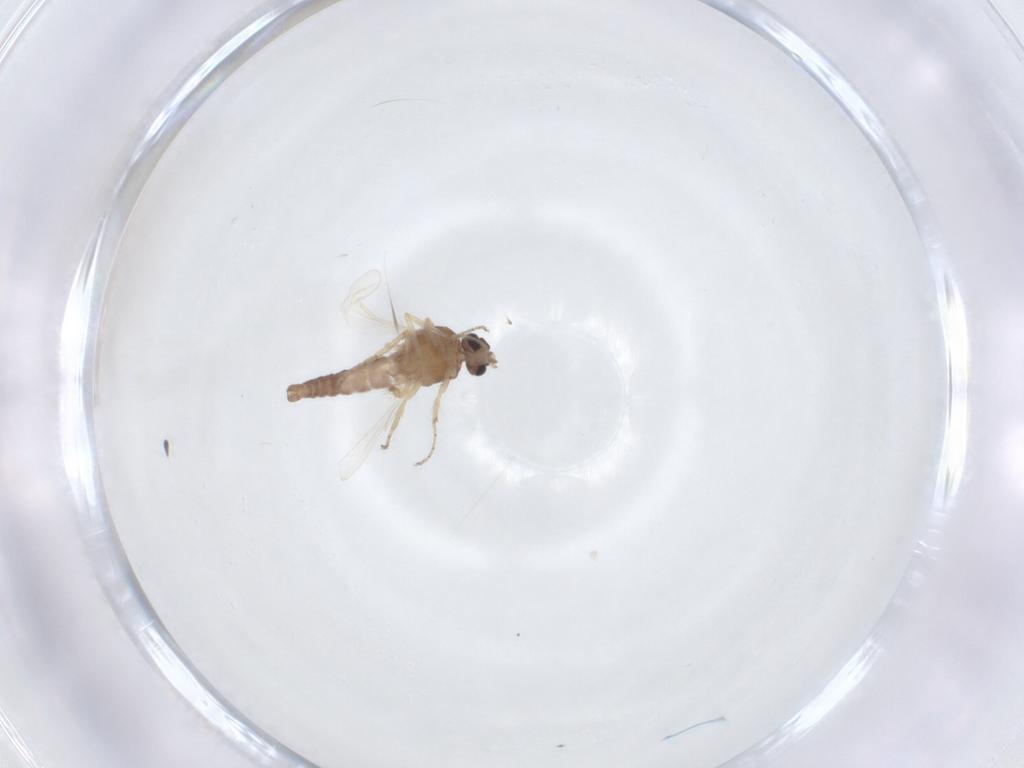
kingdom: Animalia
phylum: Arthropoda
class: Insecta
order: Diptera
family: Ceratopogonidae
